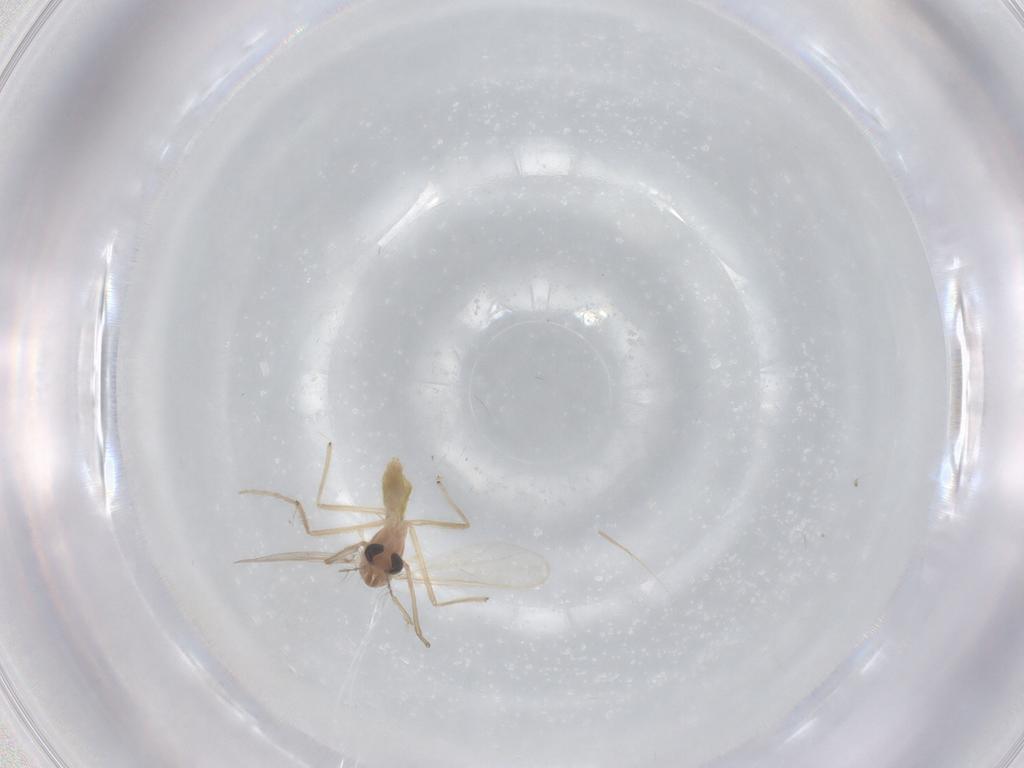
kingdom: Animalia
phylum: Arthropoda
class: Insecta
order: Diptera
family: Chironomidae
